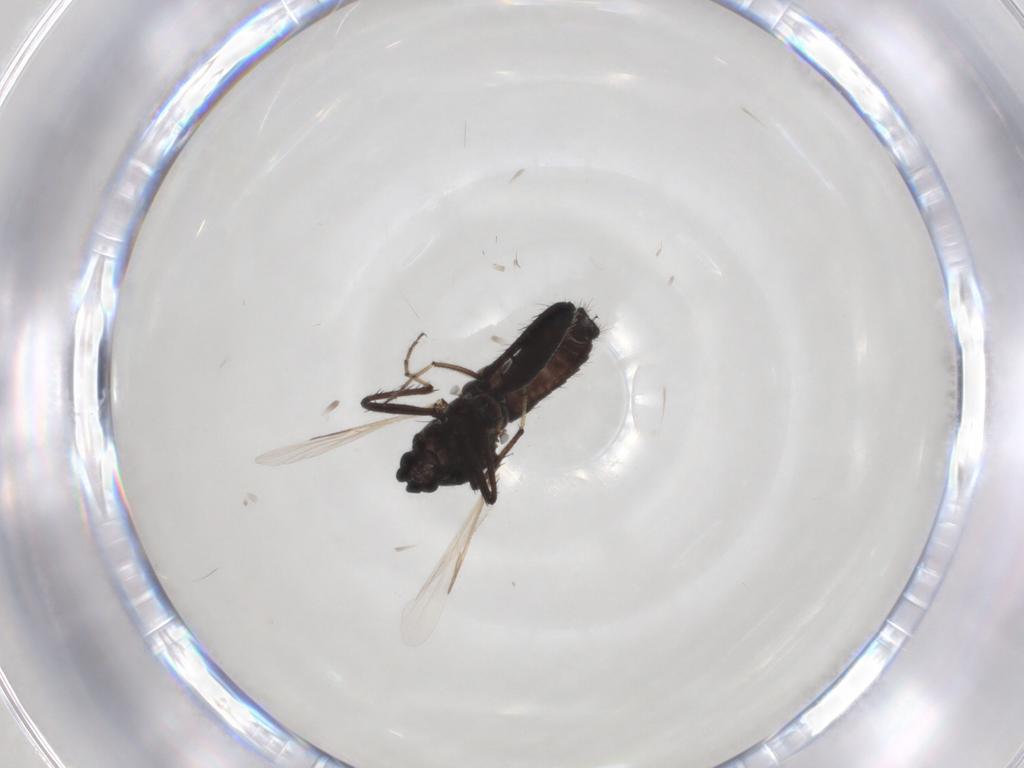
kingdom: Animalia
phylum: Arthropoda
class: Insecta
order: Diptera
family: Ceratopogonidae
